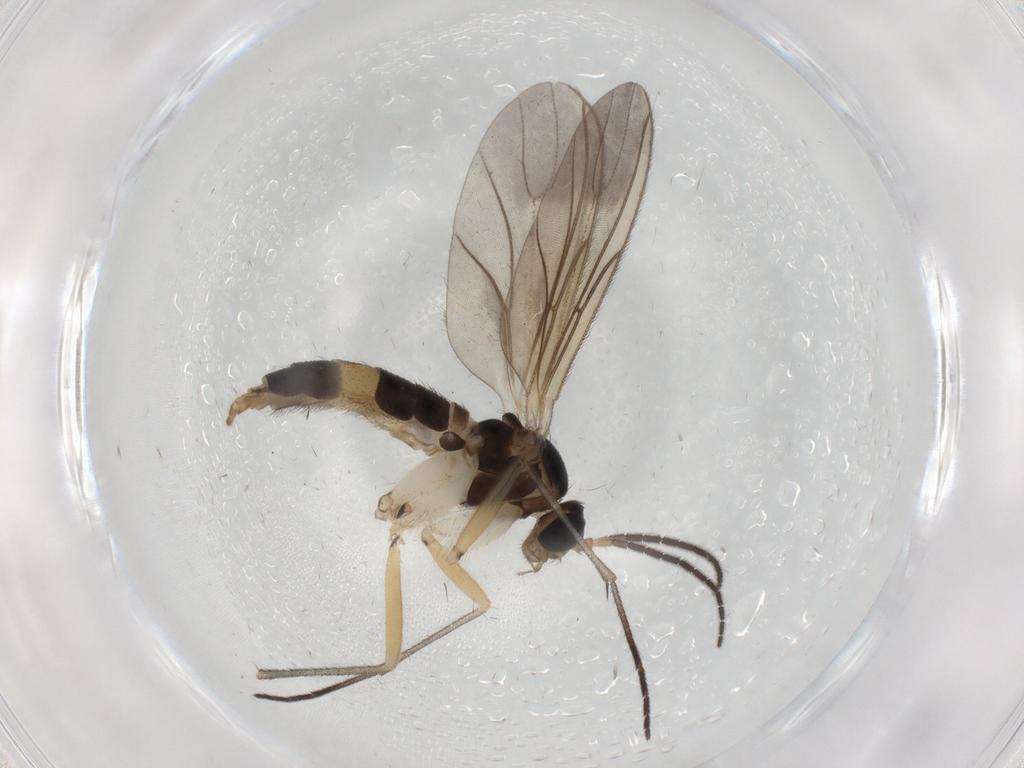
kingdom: Animalia
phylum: Arthropoda
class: Insecta
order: Diptera
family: Sciaridae
